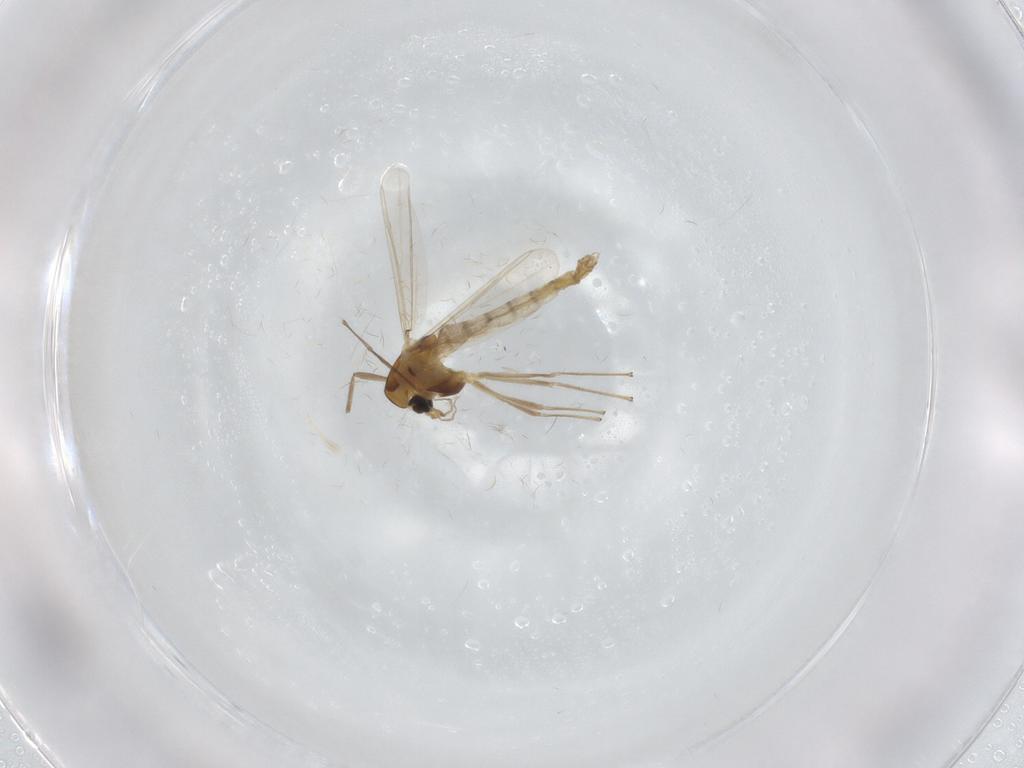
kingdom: Animalia
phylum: Arthropoda
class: Insecta
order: Diptera
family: Chironomidae
